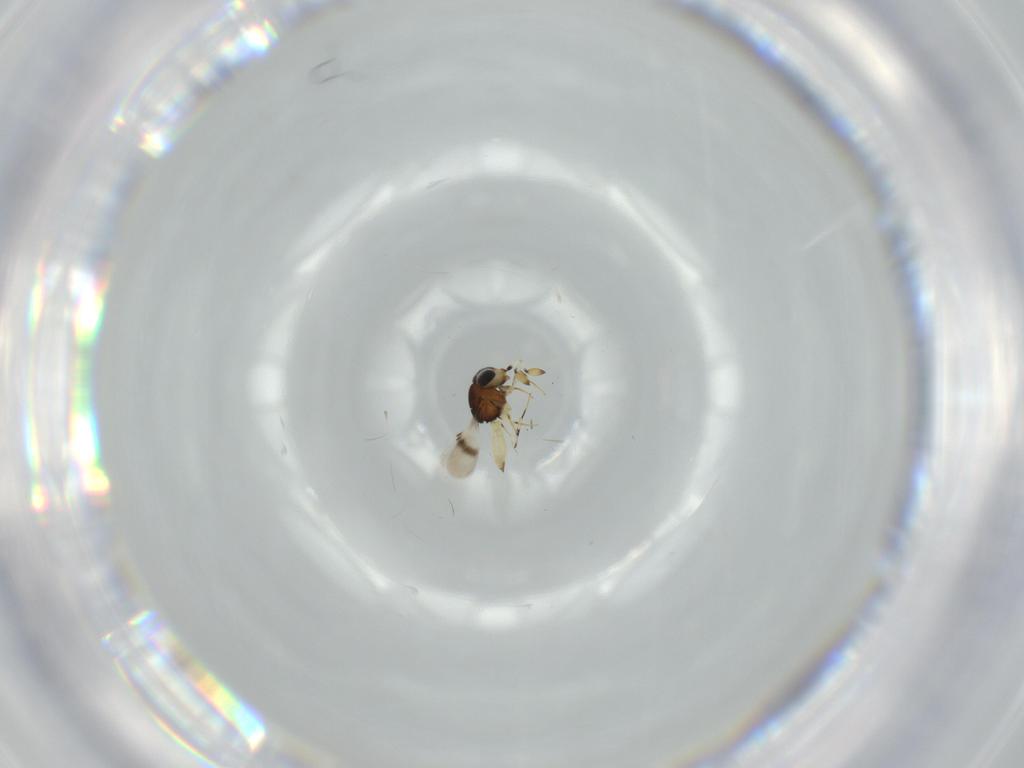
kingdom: Animalia
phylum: Arthropoda
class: Insecta
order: Hymenoptera
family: Scelionidae
